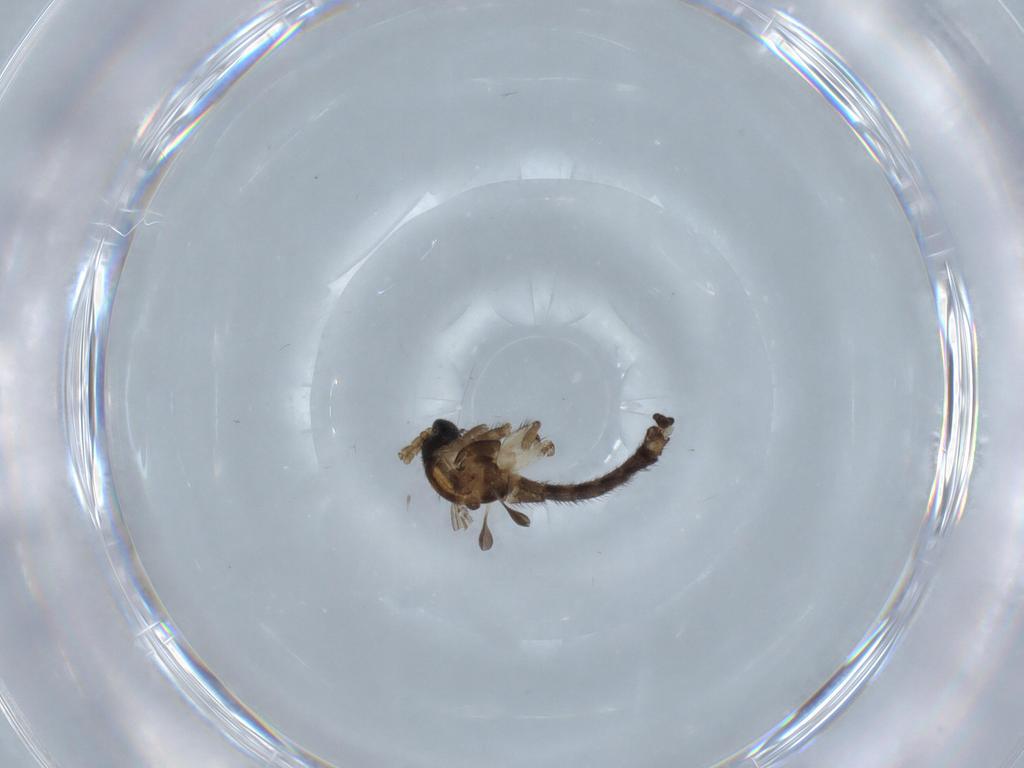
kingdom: Animalia
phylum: Arthropoda
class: Insecta
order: Diptera
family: Sciaridae
